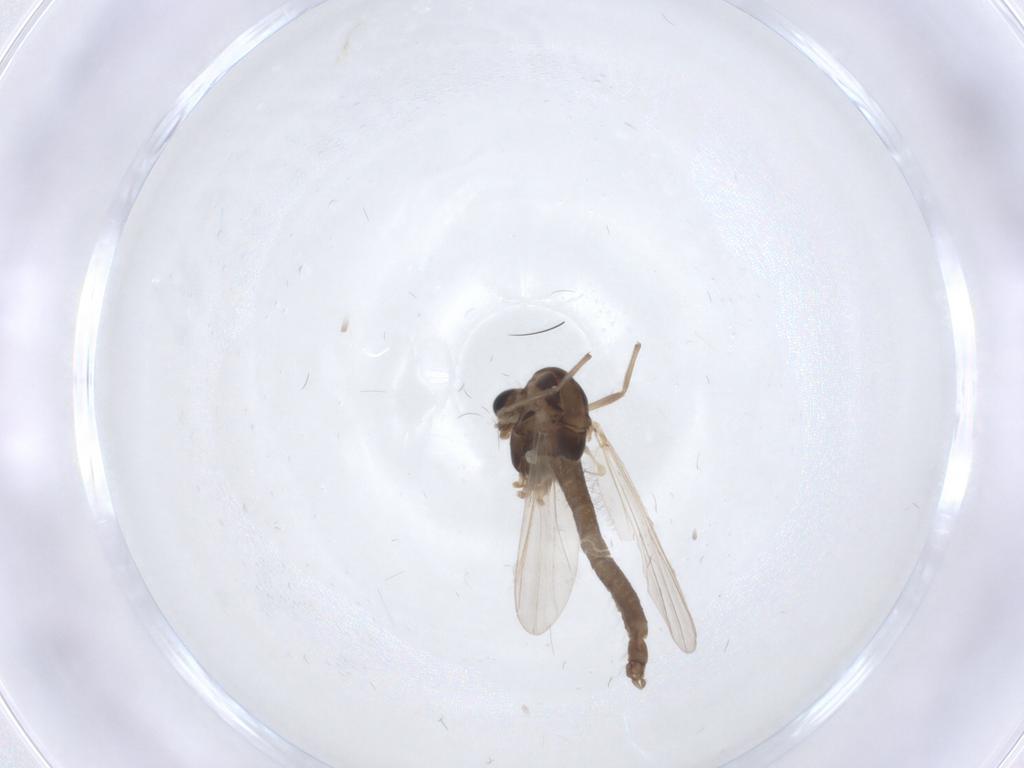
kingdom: Animalia
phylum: Arthropoda
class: Insecta
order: Diptera
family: Chironomidae
